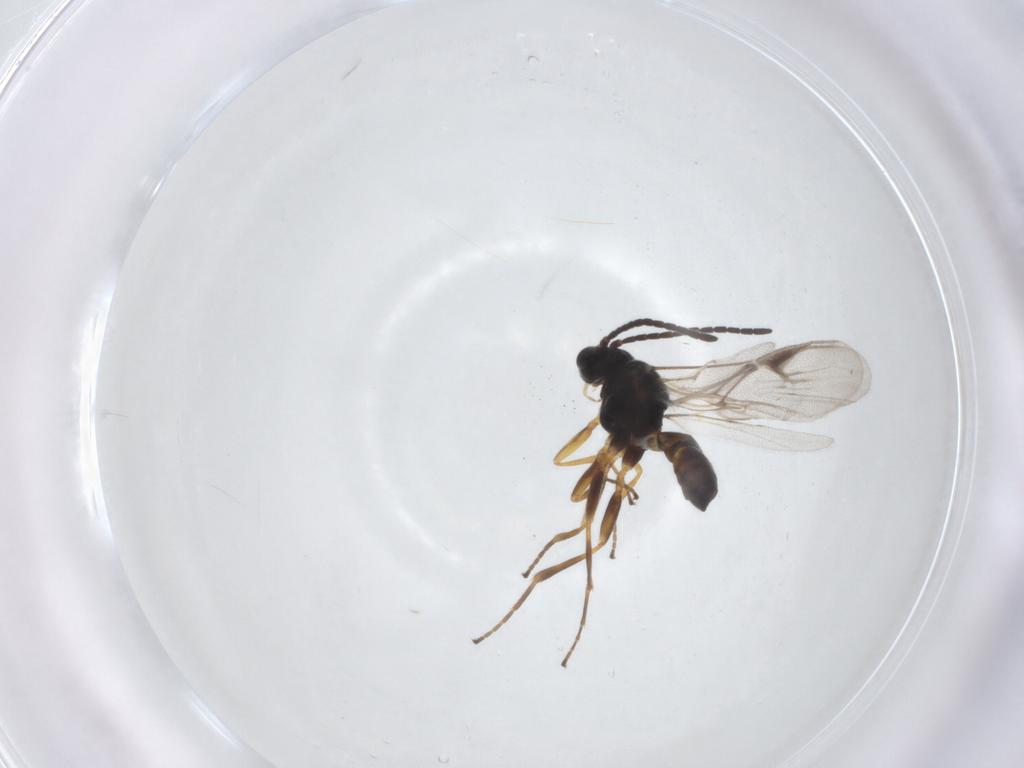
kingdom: Animalia
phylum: Arthropoda
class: Insecta
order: Hymenoptera
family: Braconidae
